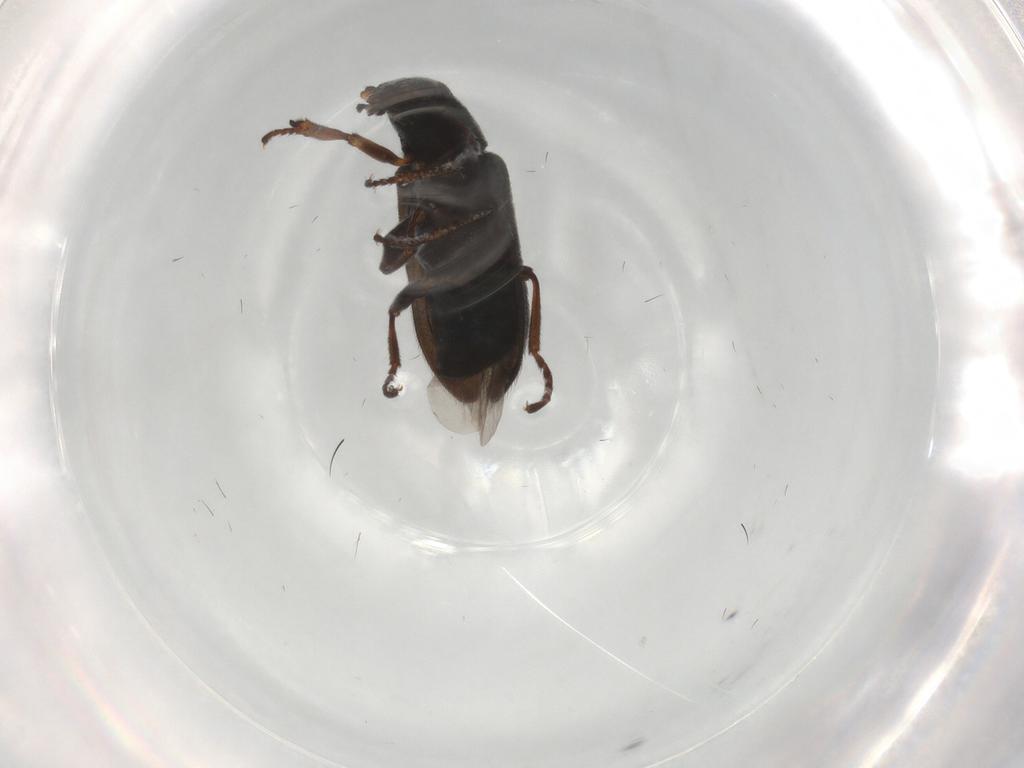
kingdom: Animalia
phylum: Arthropoda
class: Insecta
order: Coleoptera
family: Melyridae
